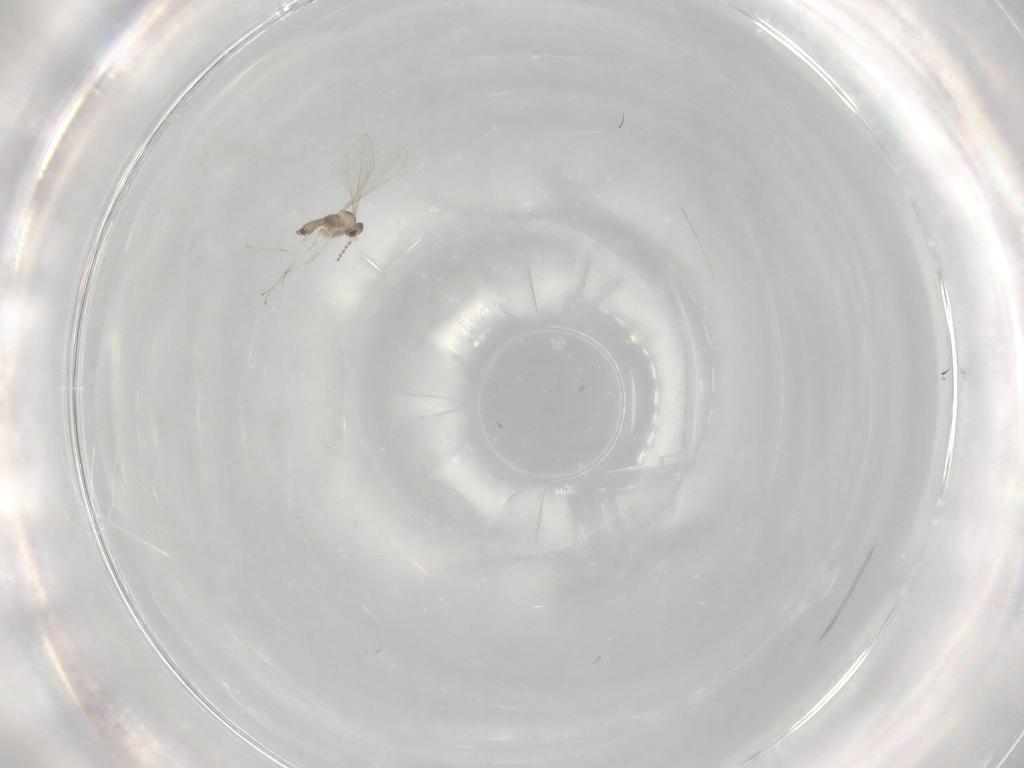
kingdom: Animalia
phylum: Arthropoda
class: Insecta
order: Diptera
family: Cecidomyiidae
